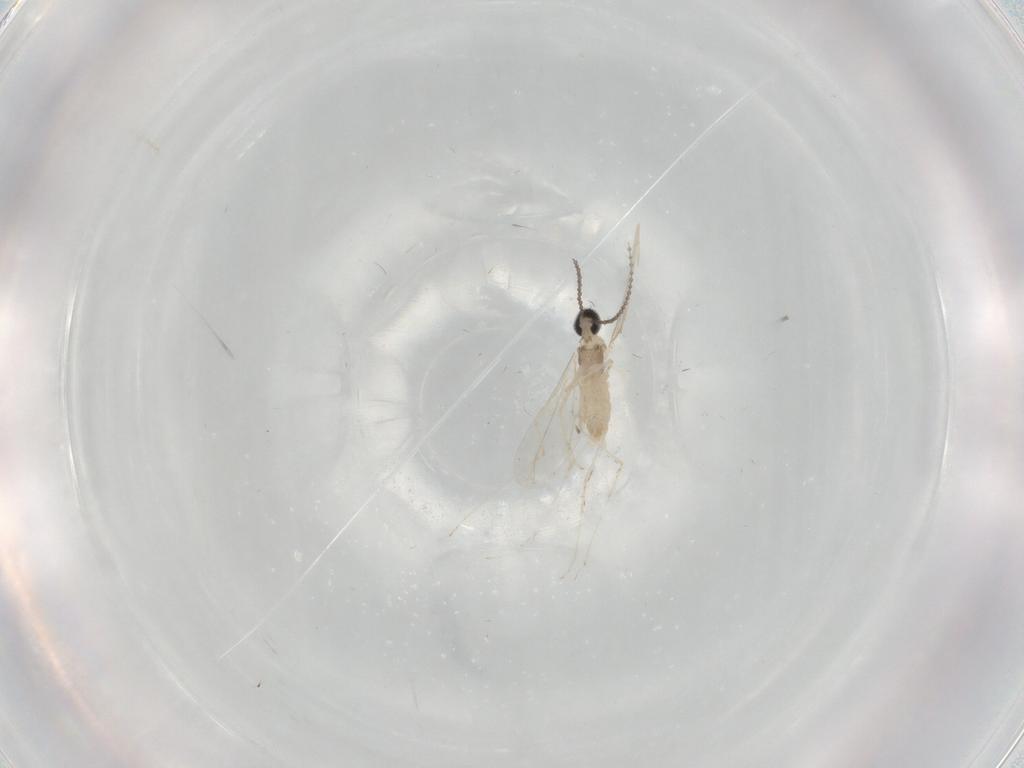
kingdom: Animalia
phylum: Arthropoda
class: Insecta
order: Diptera
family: Cecidomyiidae
